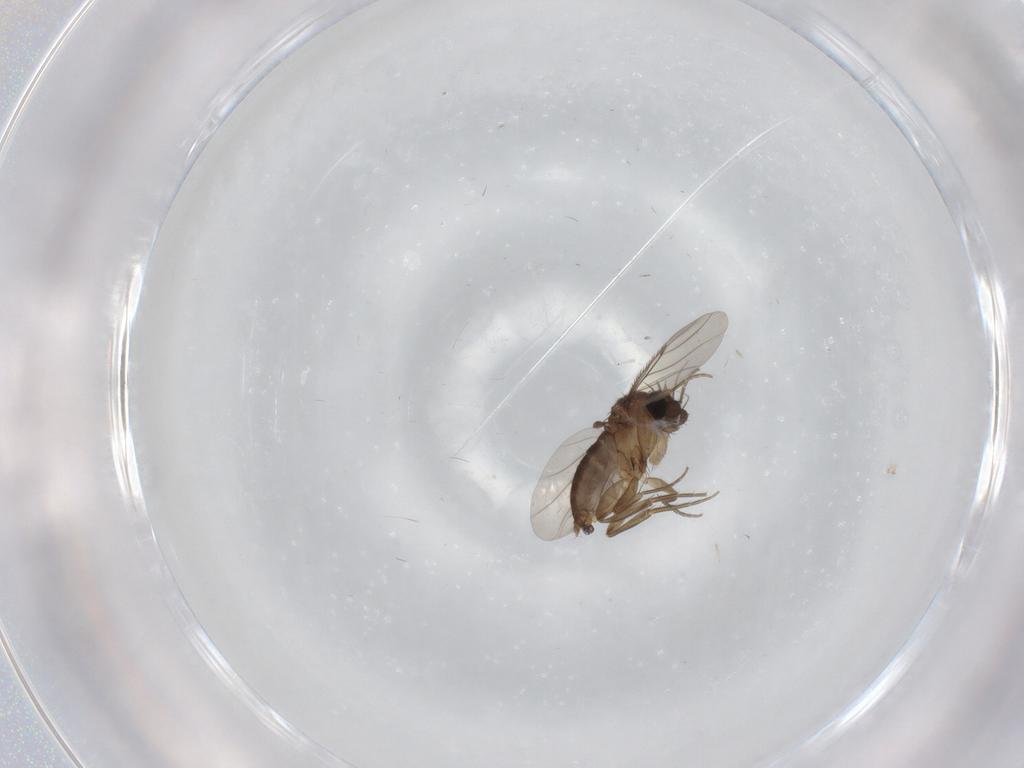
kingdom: Animalia
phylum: Arthropoda
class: Insecta
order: Diptera
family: Phoridae
